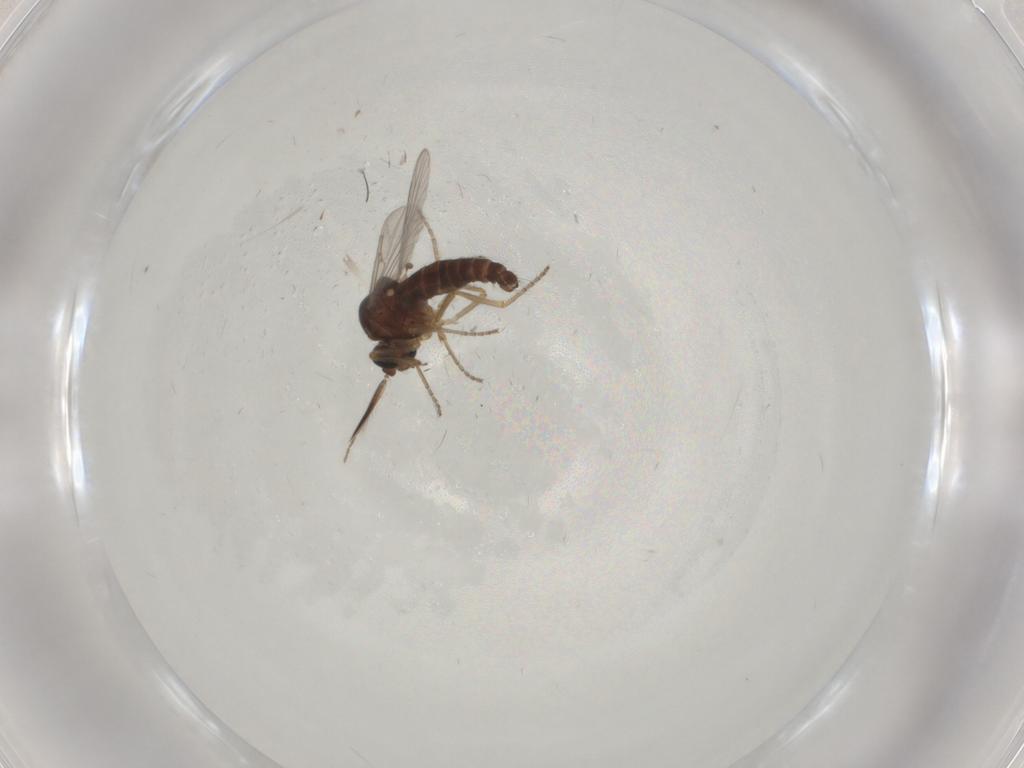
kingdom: Animalia
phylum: Arthropoda
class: Insecta
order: Diptera
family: Ceratopogonidae
